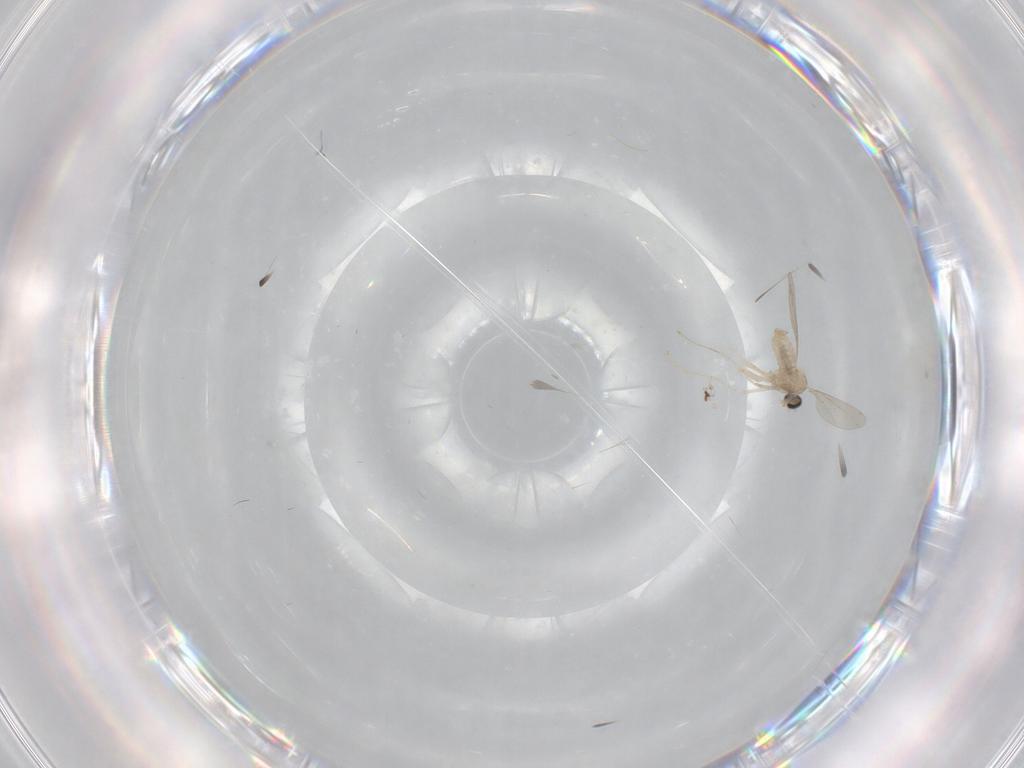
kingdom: Animalia
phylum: Arthropoda
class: Insecta
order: Diptera
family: Cecidomyiidae
